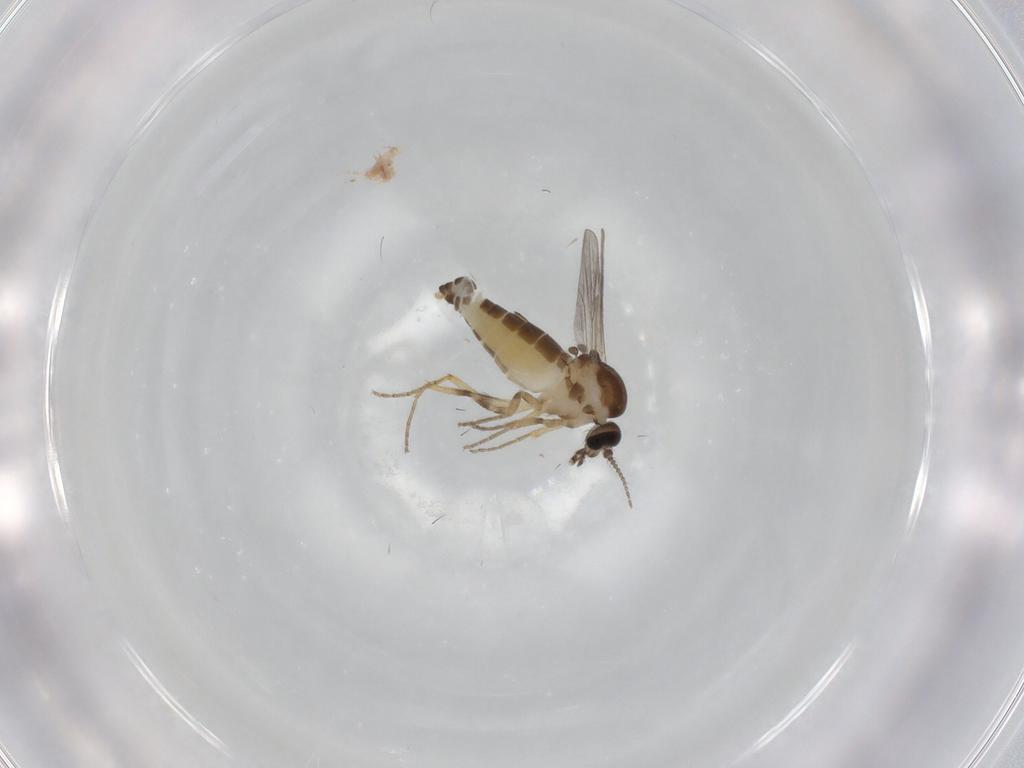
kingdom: Animalia
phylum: Arthropoda
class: Insecta
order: Diptera
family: Ceratopogonidae
